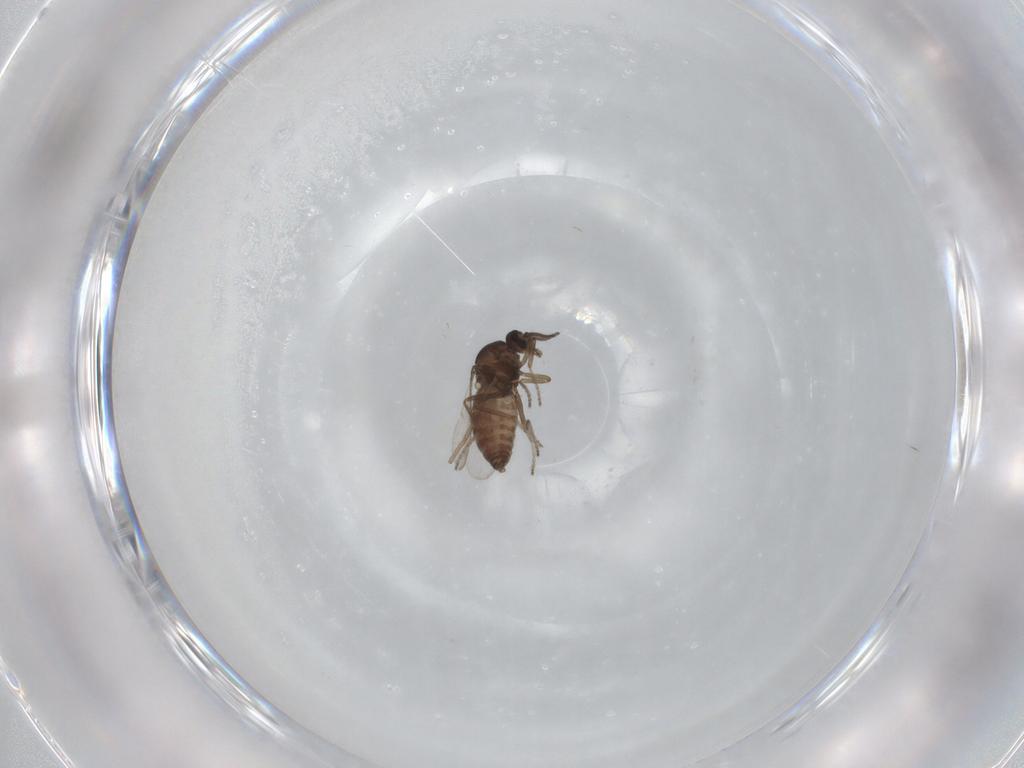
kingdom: Animalia
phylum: Arthropoda
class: Insecta
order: Diptera
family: Ceratopogonidae
